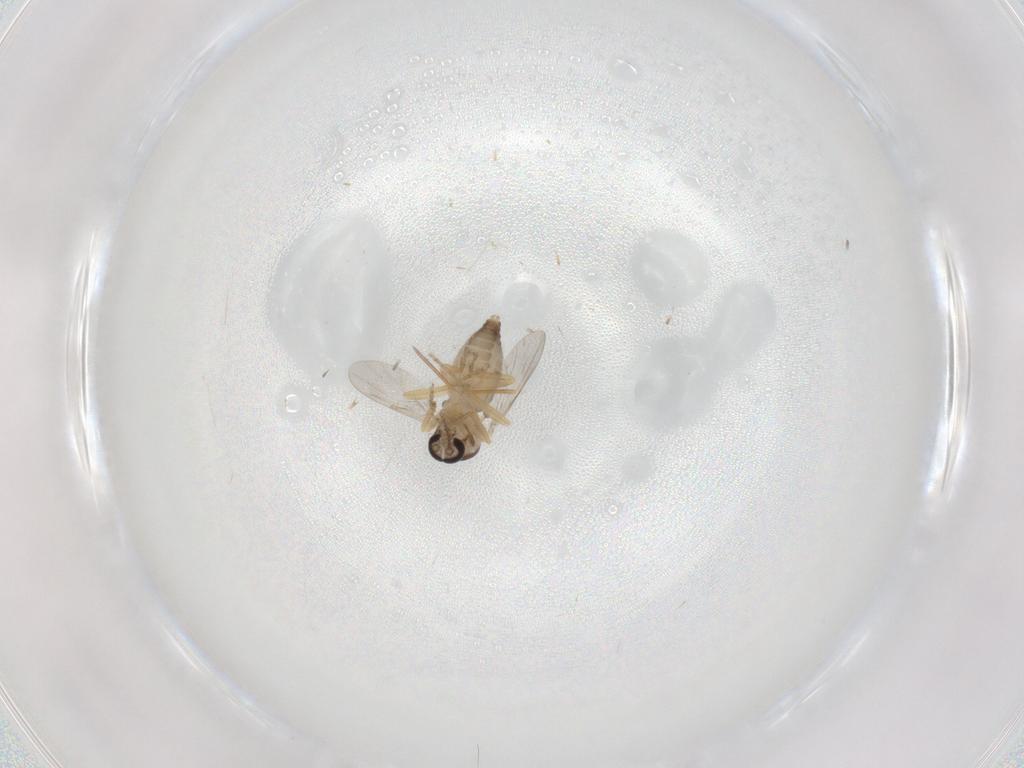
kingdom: Animalia
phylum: Arthropoda
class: Insecta
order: Diptera
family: Ceratopogonidae
